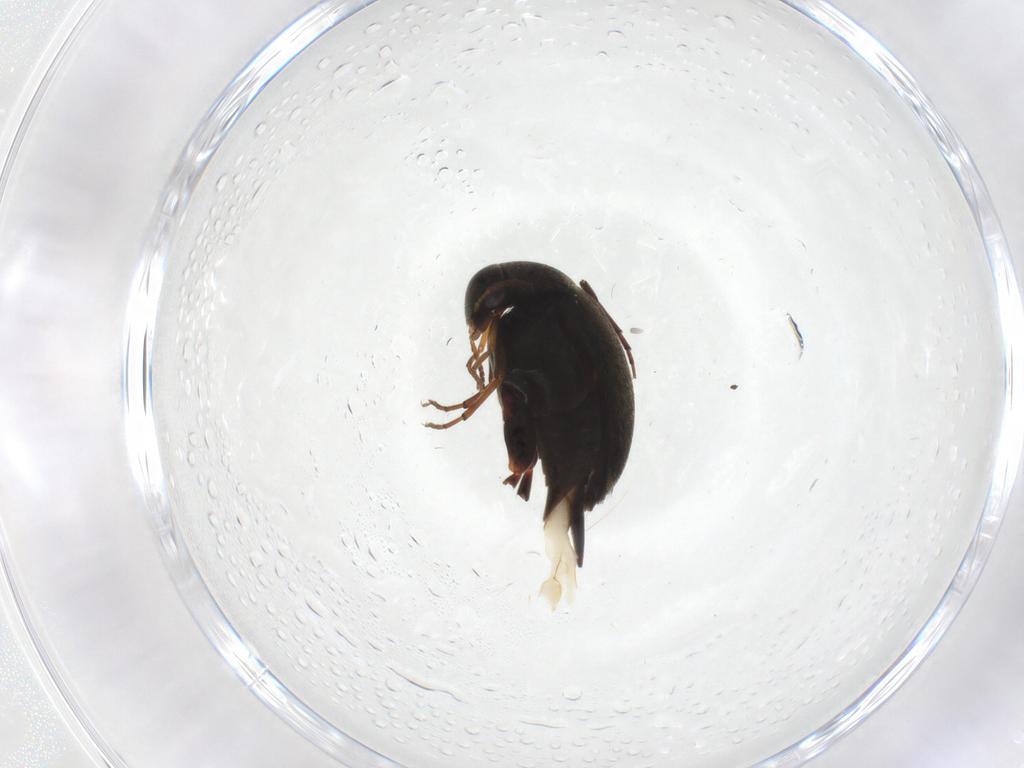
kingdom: Animalia
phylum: Arthropoda
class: Insecta
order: Coleoptera
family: Mordellidae
